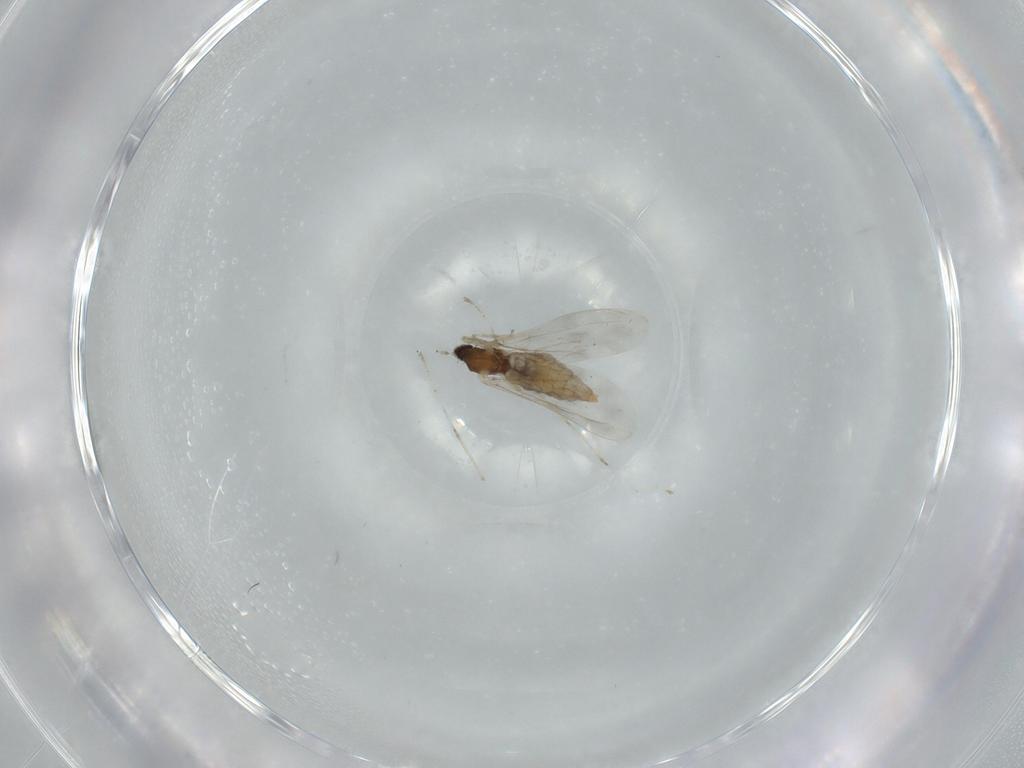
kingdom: Animalia
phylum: Arthropoda
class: Insecta
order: Diptera
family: Cecidomyiidae
